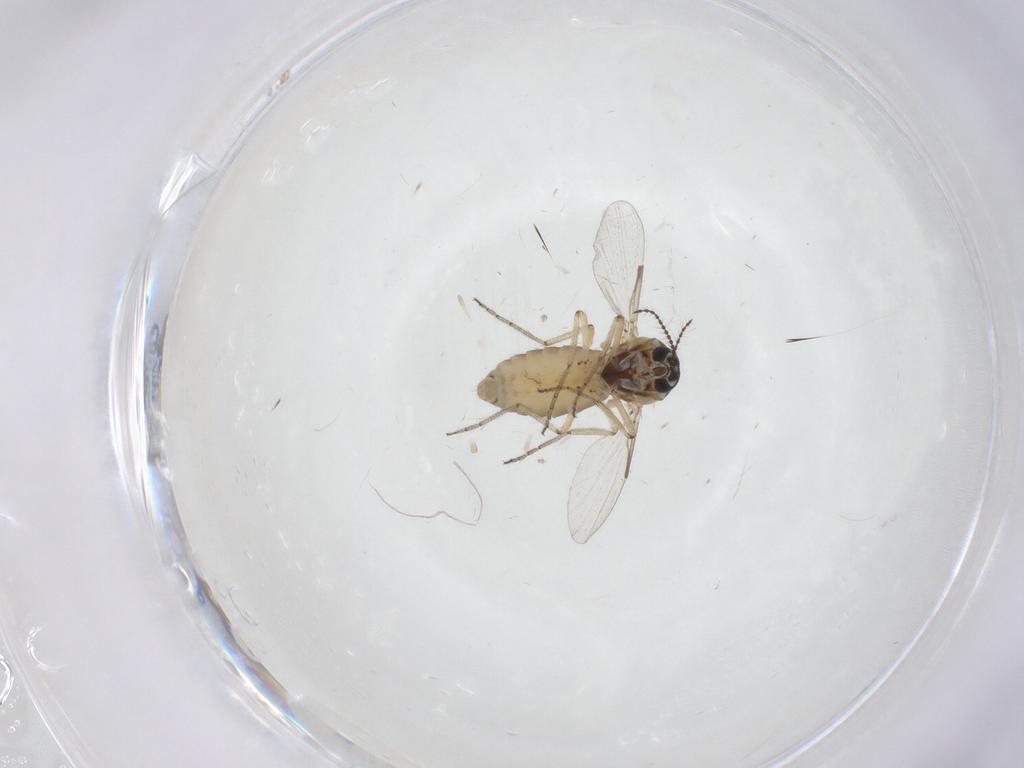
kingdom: Animalia
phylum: Arthropoda
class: Insecta
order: Diptera
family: Ceratopogonidae
